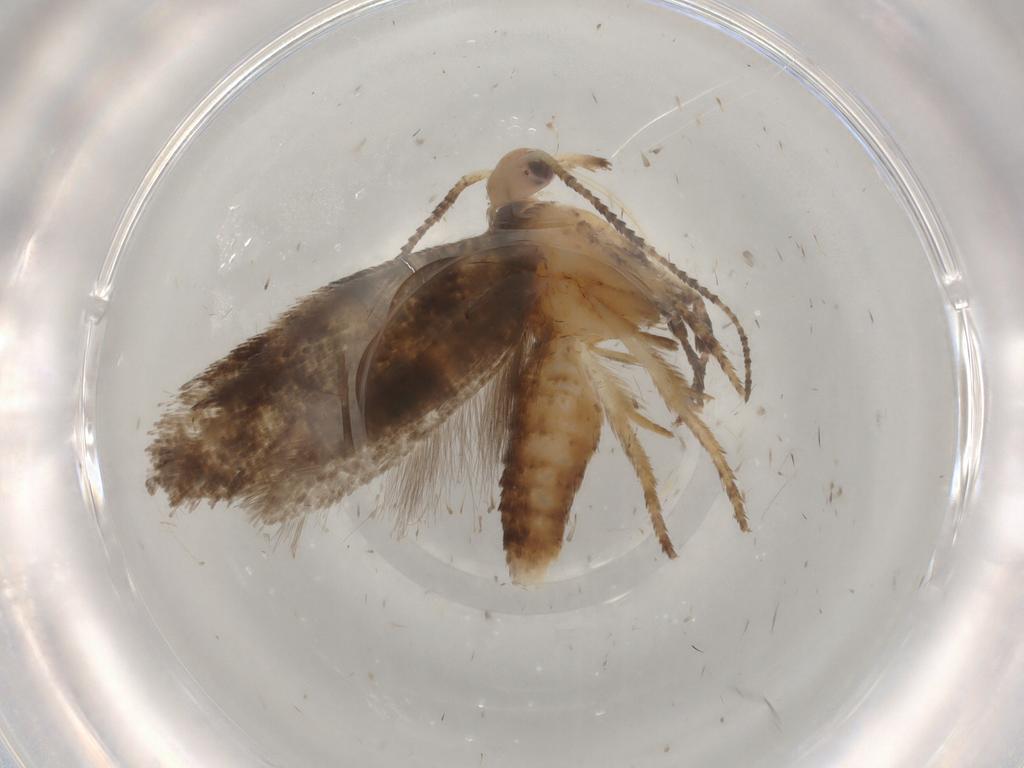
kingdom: Animalia
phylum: Arthropoda
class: Insecta
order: Lepidoptera
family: Ypsolophidae
